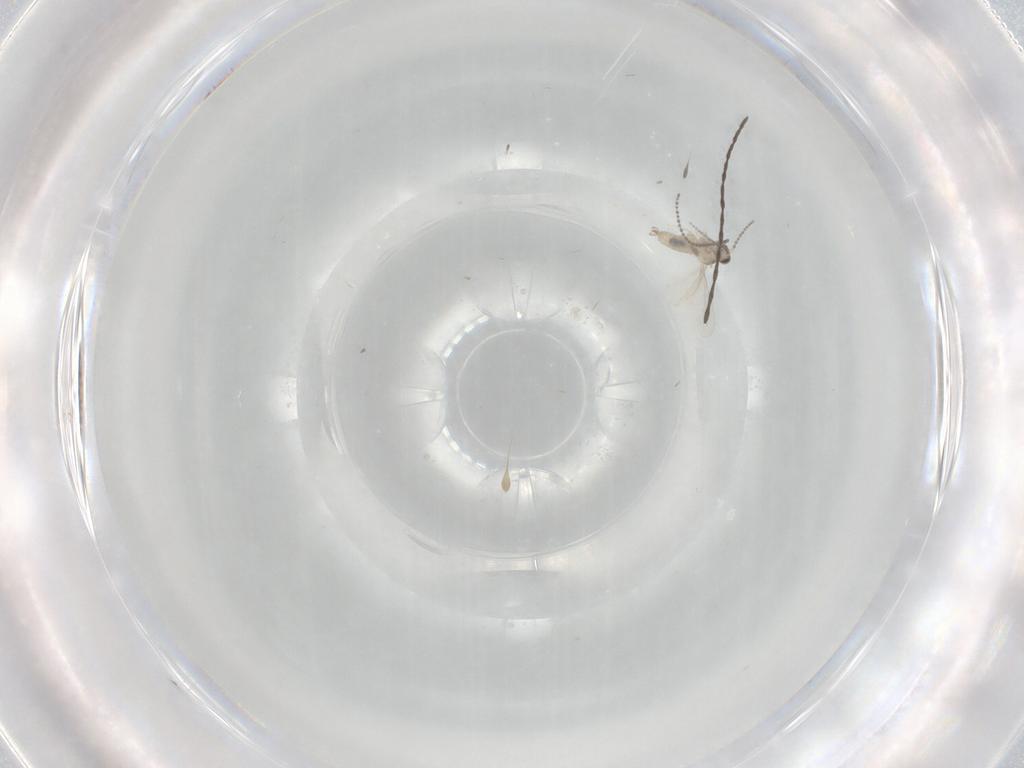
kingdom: Animalia
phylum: Arthropoda
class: Insecta
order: Diptera
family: Cecidomyiidae
